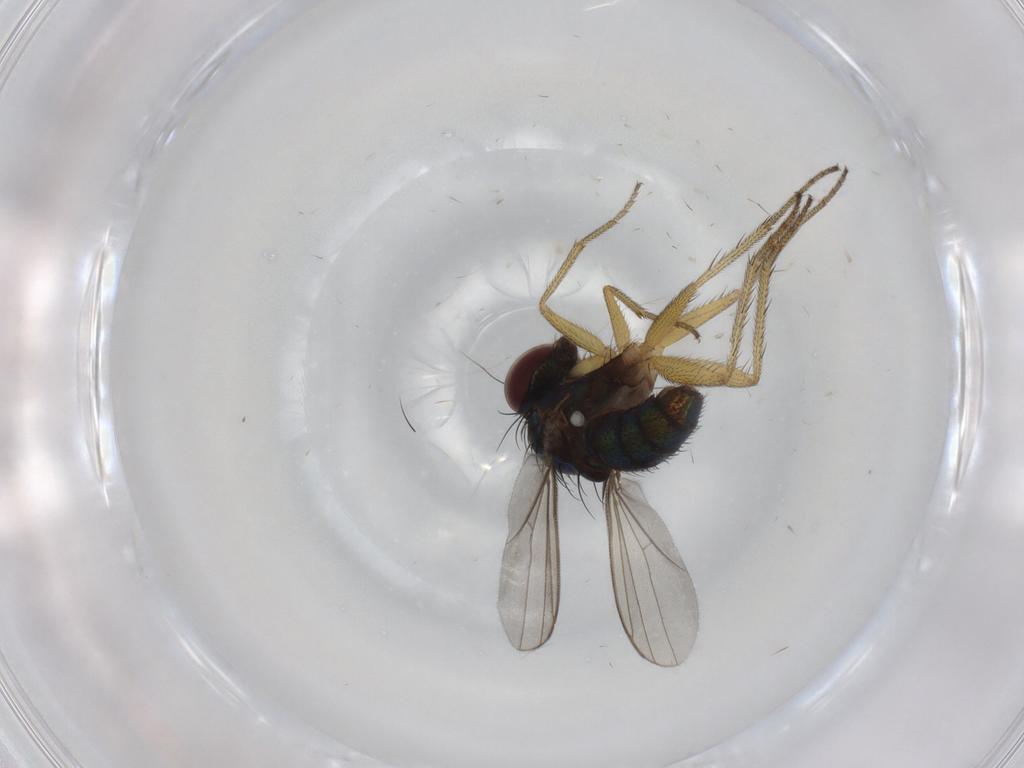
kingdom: Animalia
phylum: Arthropoda
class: Insecta
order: Diptera
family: Dolichopodidae
